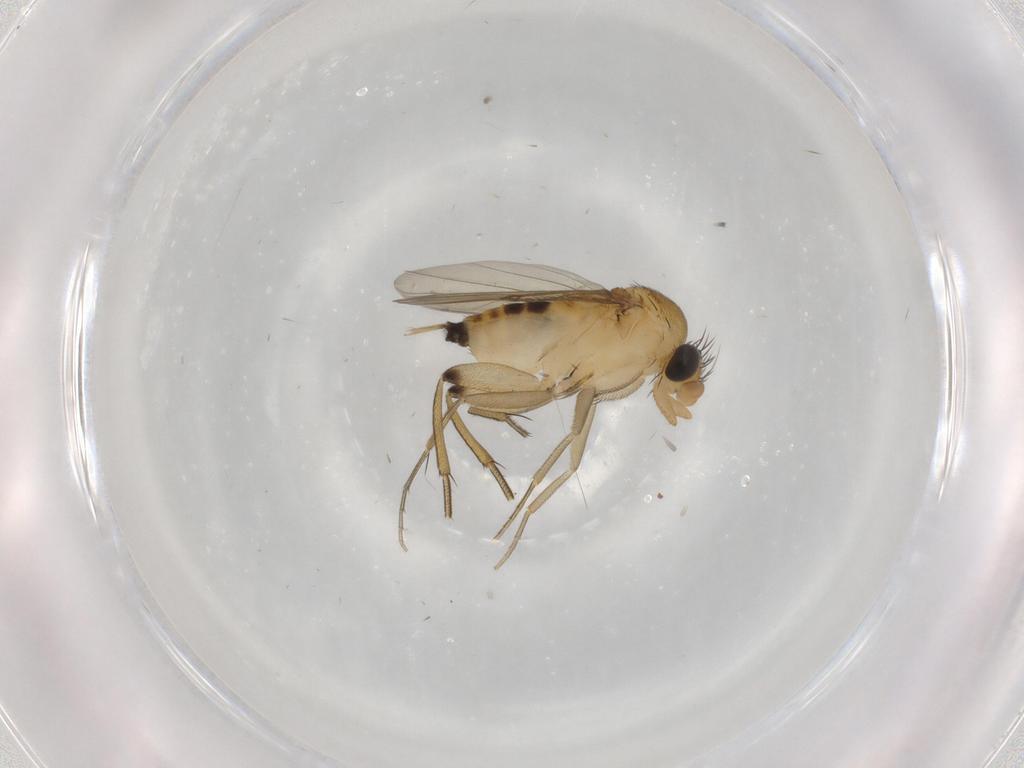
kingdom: Animalia
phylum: Arthropoda
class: Insecta
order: Diptera
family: Phoridae
